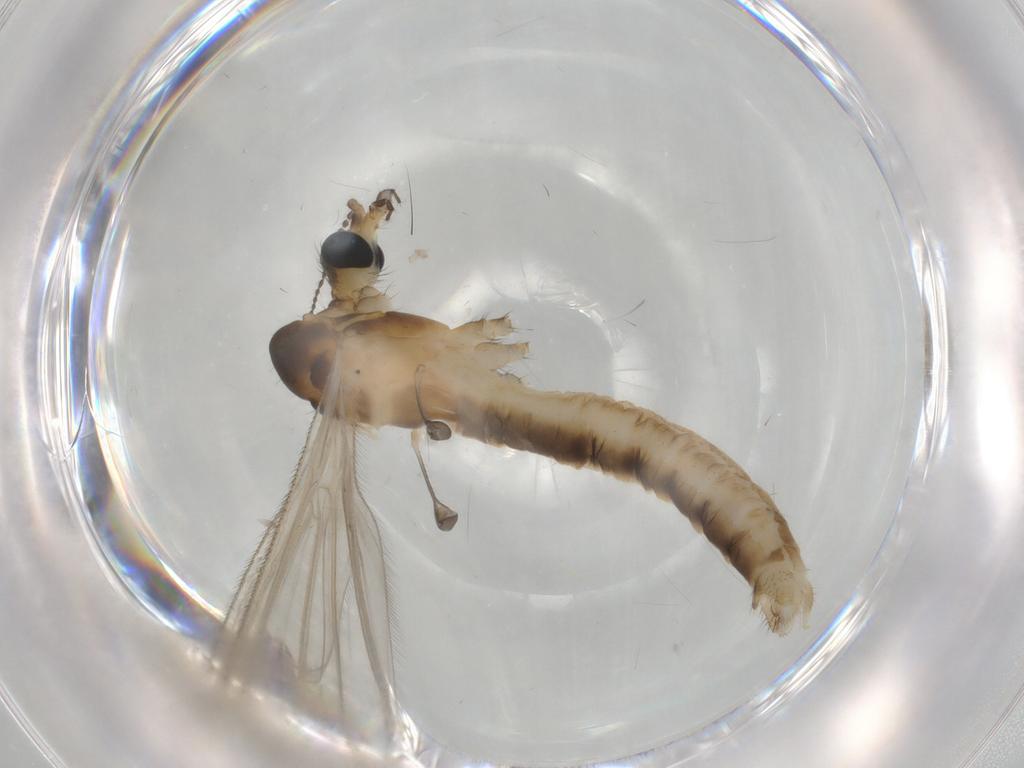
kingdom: Animalia
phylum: Arthropoda
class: Insecta
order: Diptera
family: Limoniidae
